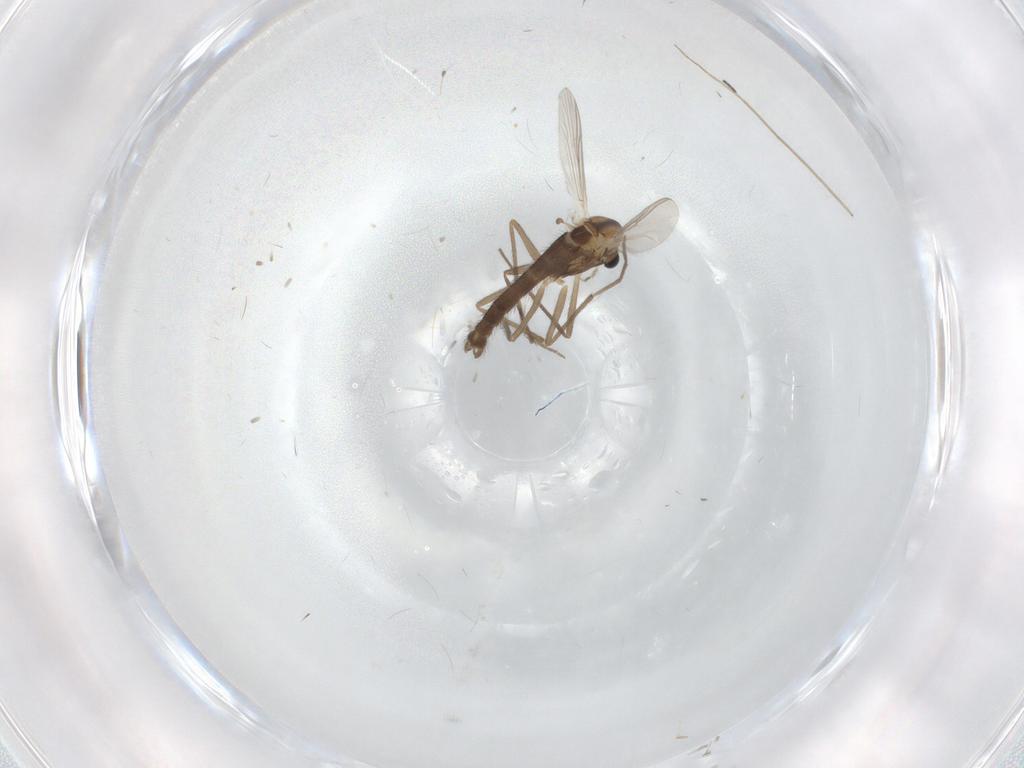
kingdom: Animalia
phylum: Arthropoda
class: Insecta
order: Diptera
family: Chironomidae
